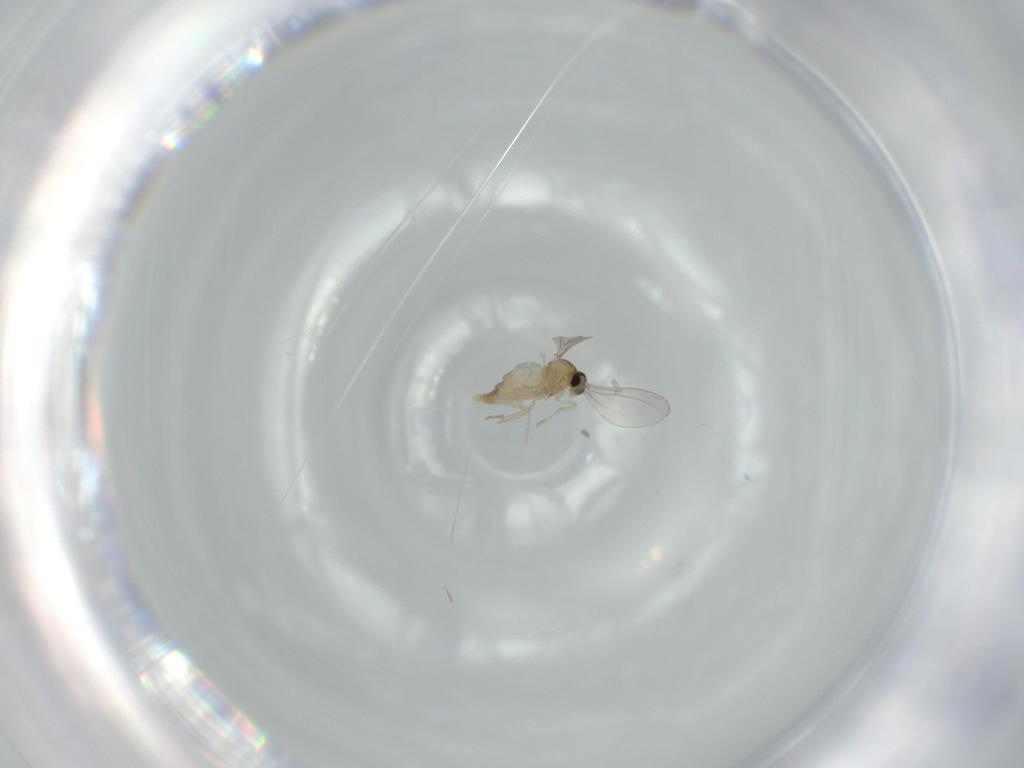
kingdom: Animalia
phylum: Arthropoda
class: Insecta
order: Diptera
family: Cecidomyiidae
